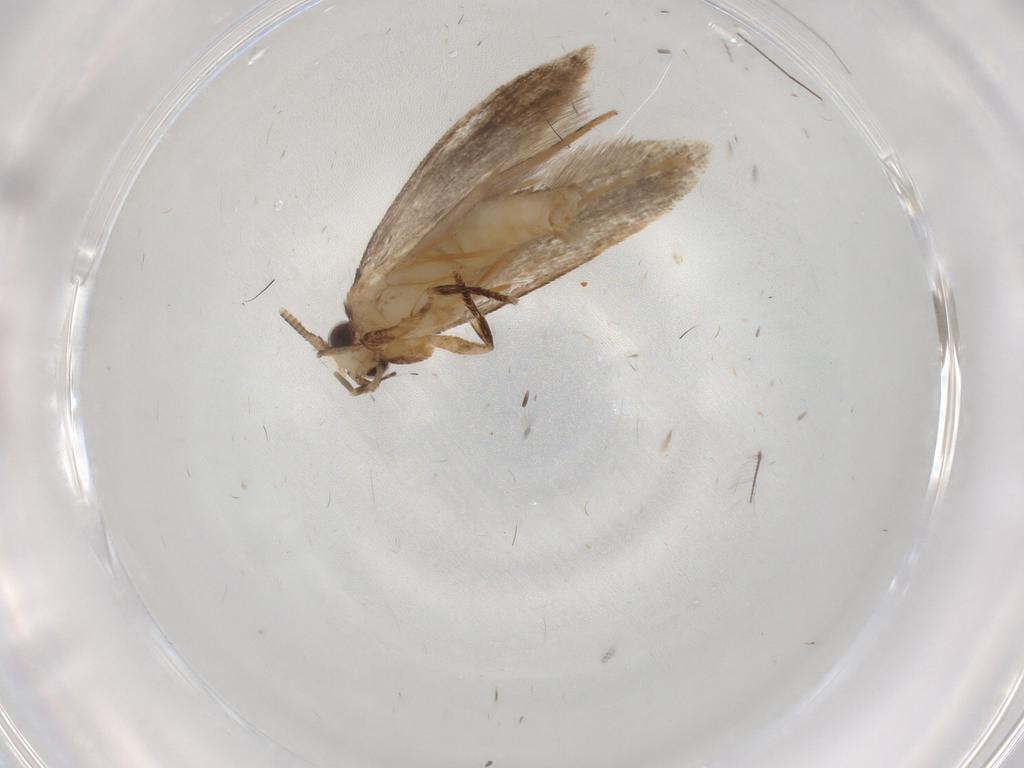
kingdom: Animalia
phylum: Arthropoda
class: Insecta
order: Lepidoptera
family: Tineidae
